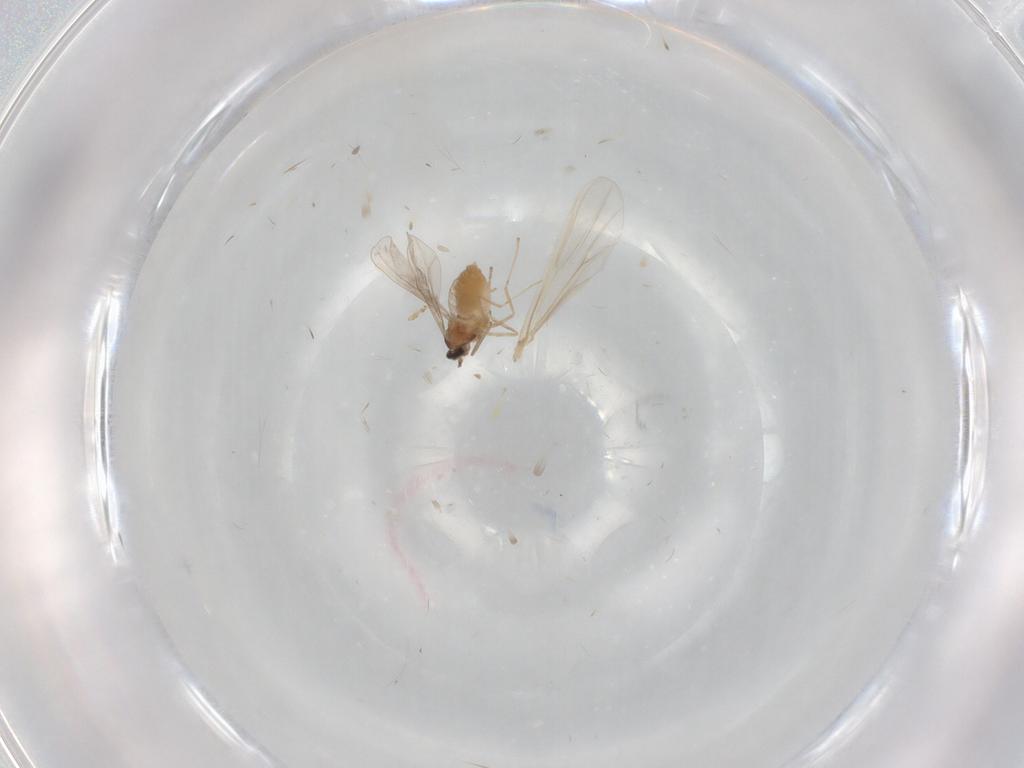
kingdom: Animalia
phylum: Arthropoda
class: Insecta
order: Diptera
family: Cecidomyiidae
